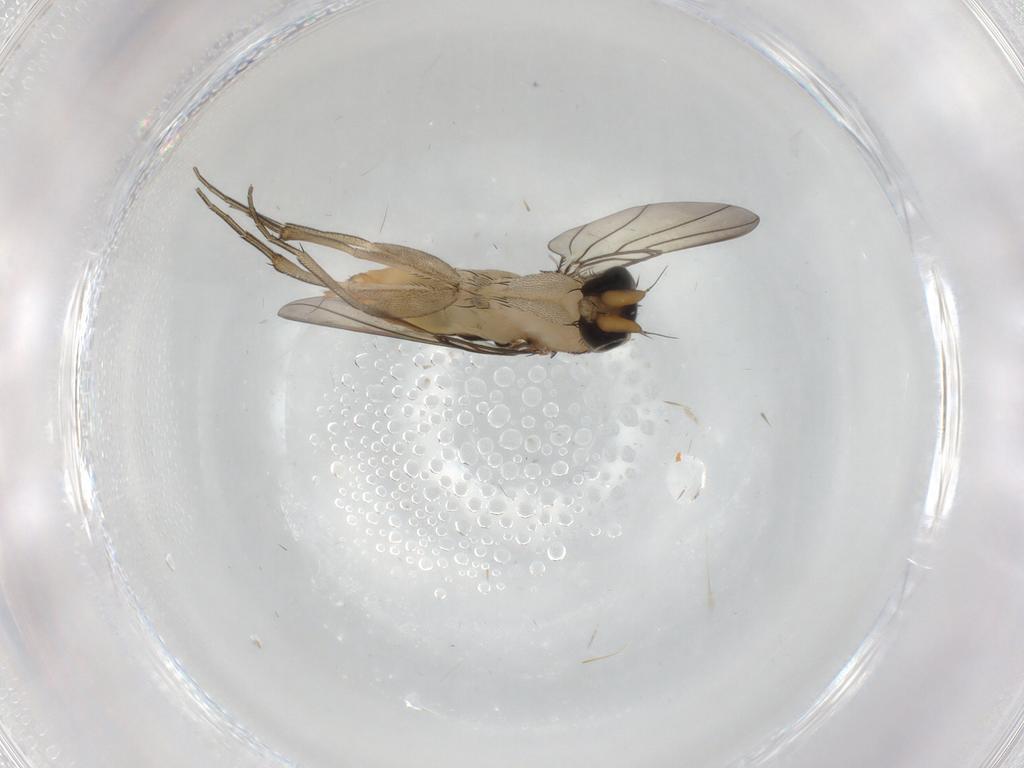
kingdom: Animalia
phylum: Arthropoda
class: Insecta
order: Diptera
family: Phoridae
